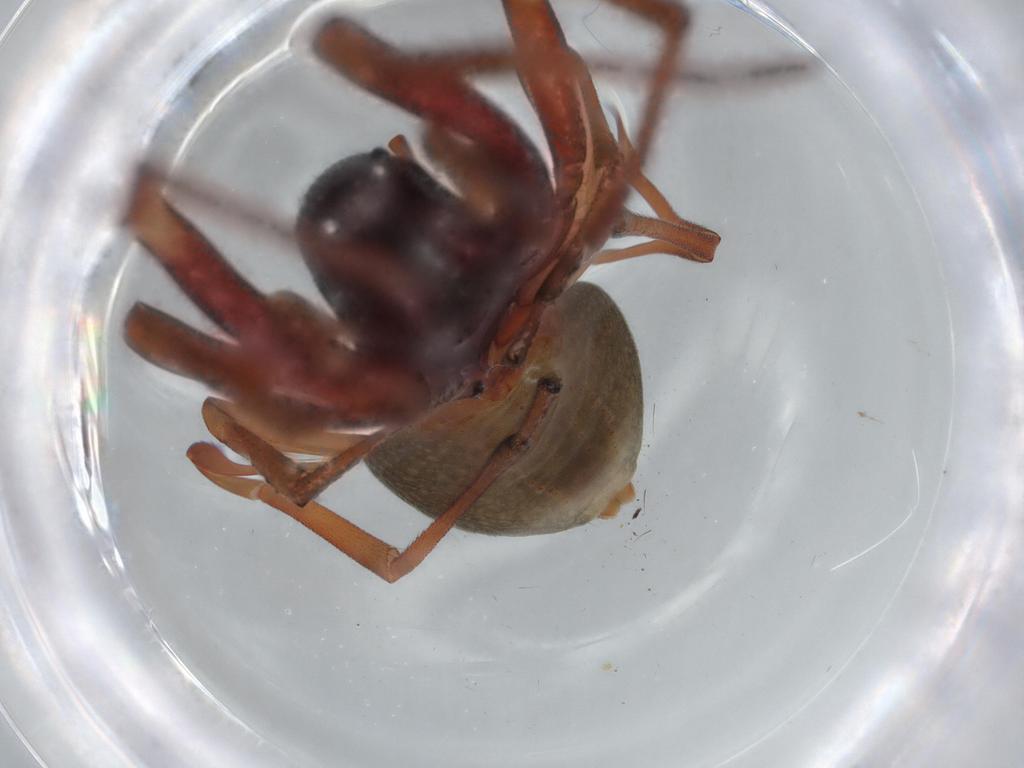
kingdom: Animalia
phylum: Arthropoda
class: Arachnida
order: Araneae
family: Trachelidae
